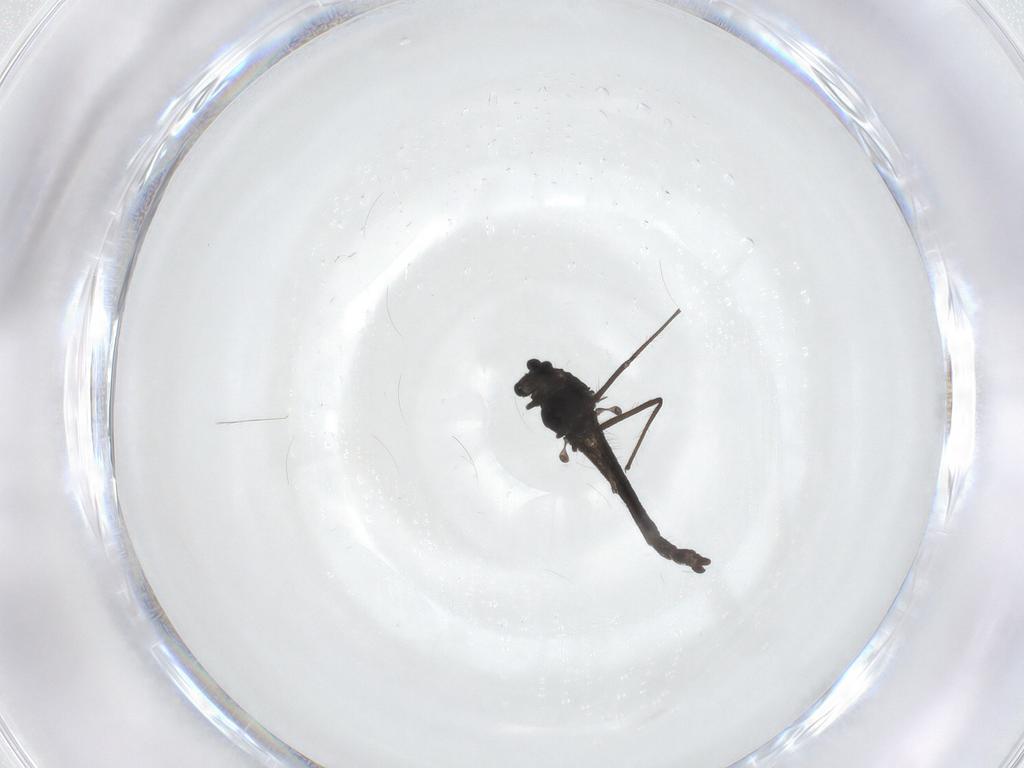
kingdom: Animalia
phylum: Arthropoda
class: Insecta
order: Diptera
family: Chironomidae
